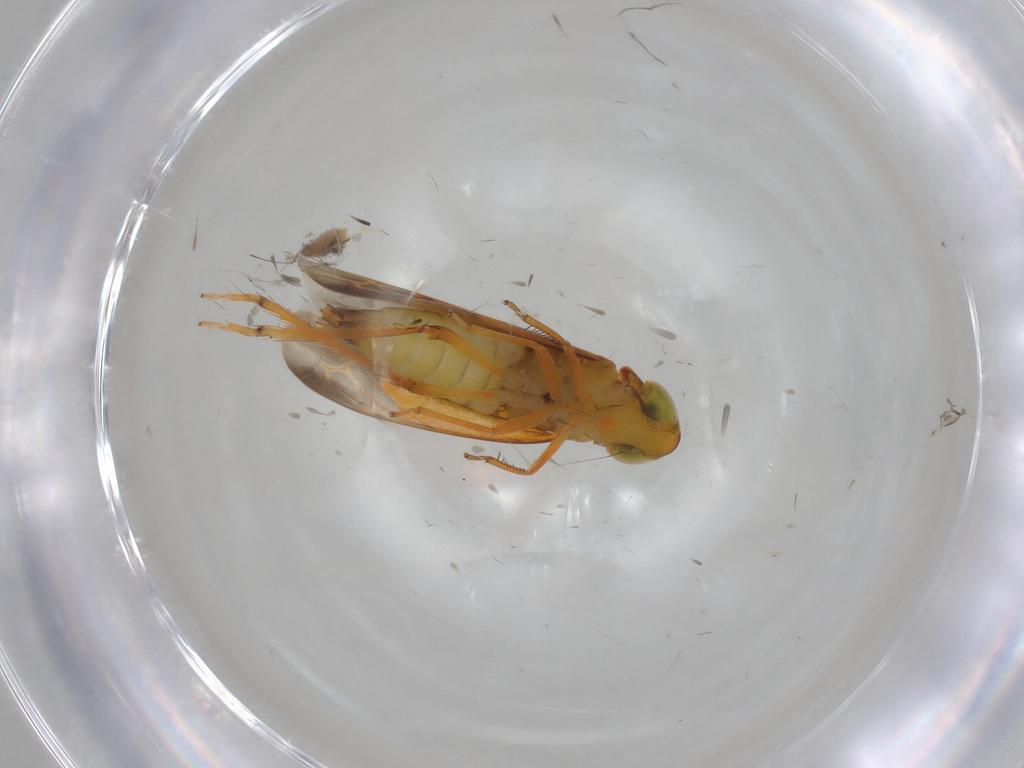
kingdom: Animalia
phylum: Arthropoda
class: Insecta
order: Hemiptera
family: Cicadellidae
